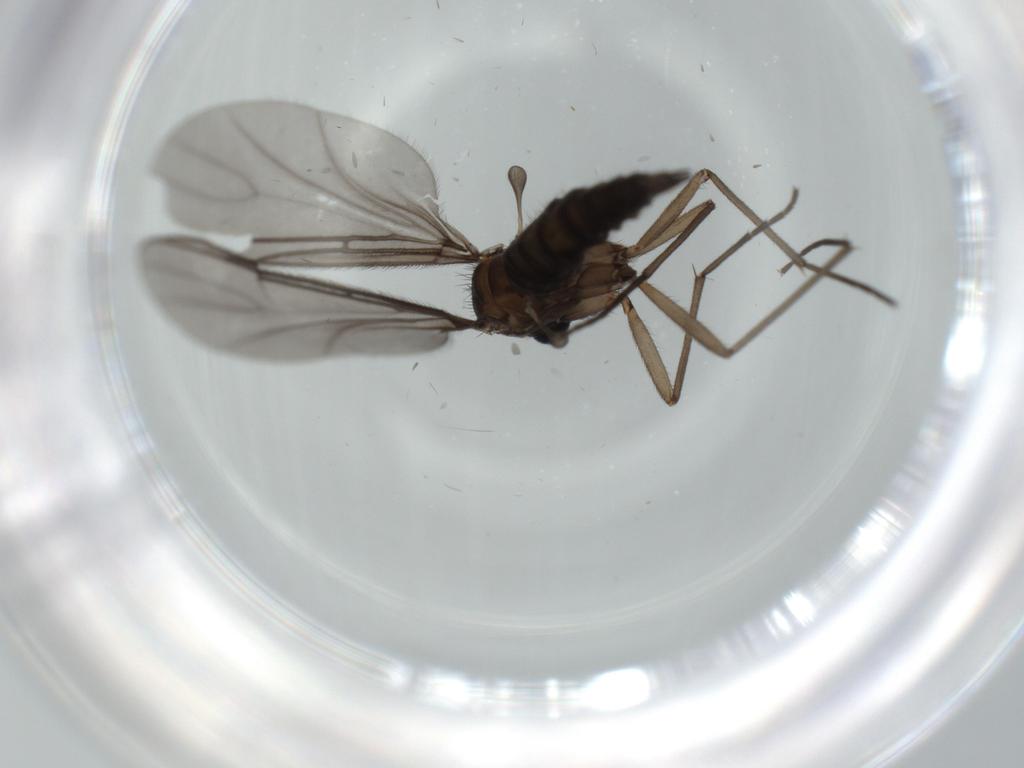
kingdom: Animalia
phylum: Arthropoda
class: Insecta
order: Diptera
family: Sciaridae
